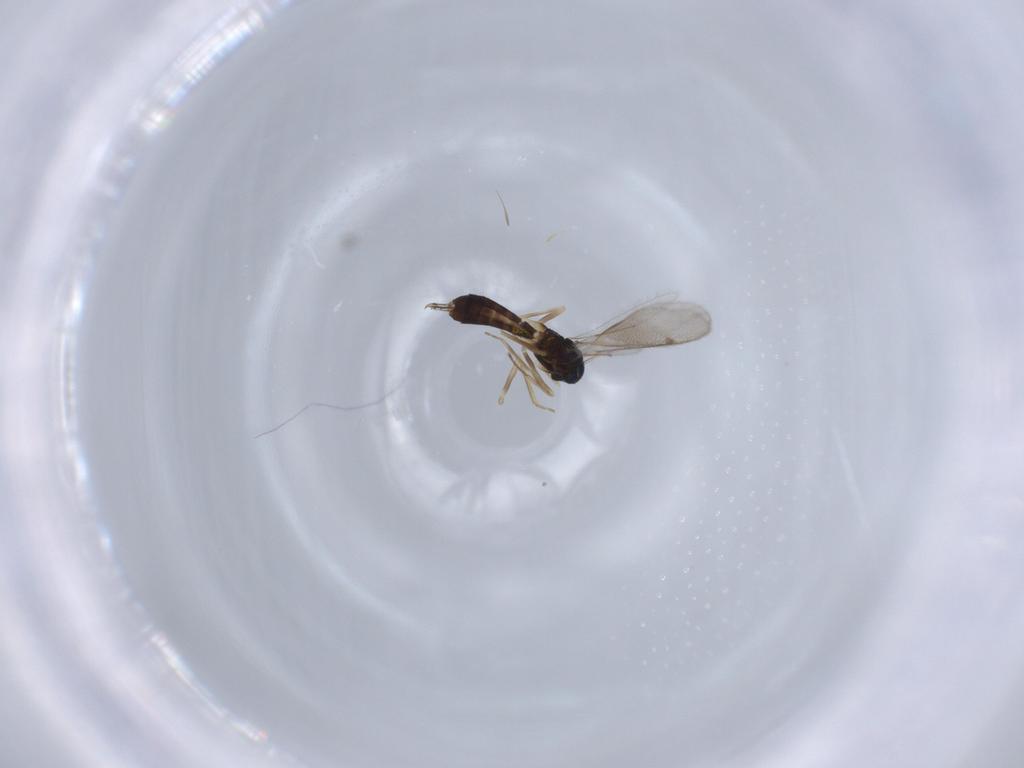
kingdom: Animalia
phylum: Arthropoda
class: Insecta
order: Hymenoptera
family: Eulophidae
